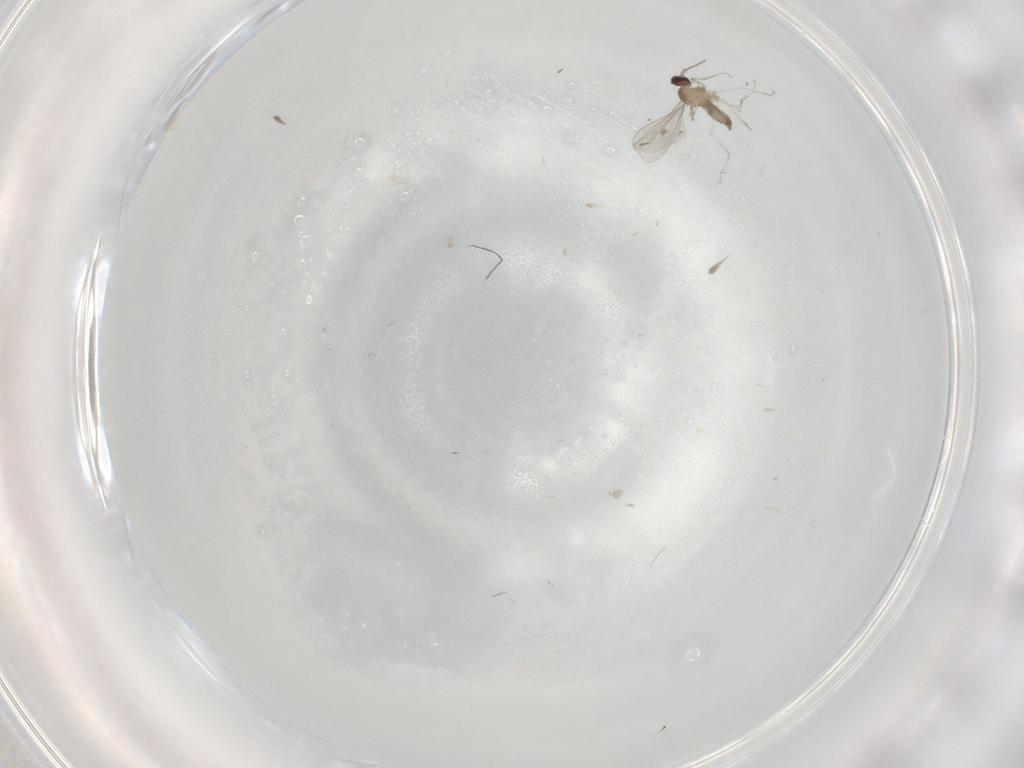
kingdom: Animalia
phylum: Arthropoda
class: Insecta
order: Diptera
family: Cecidomyiidae
